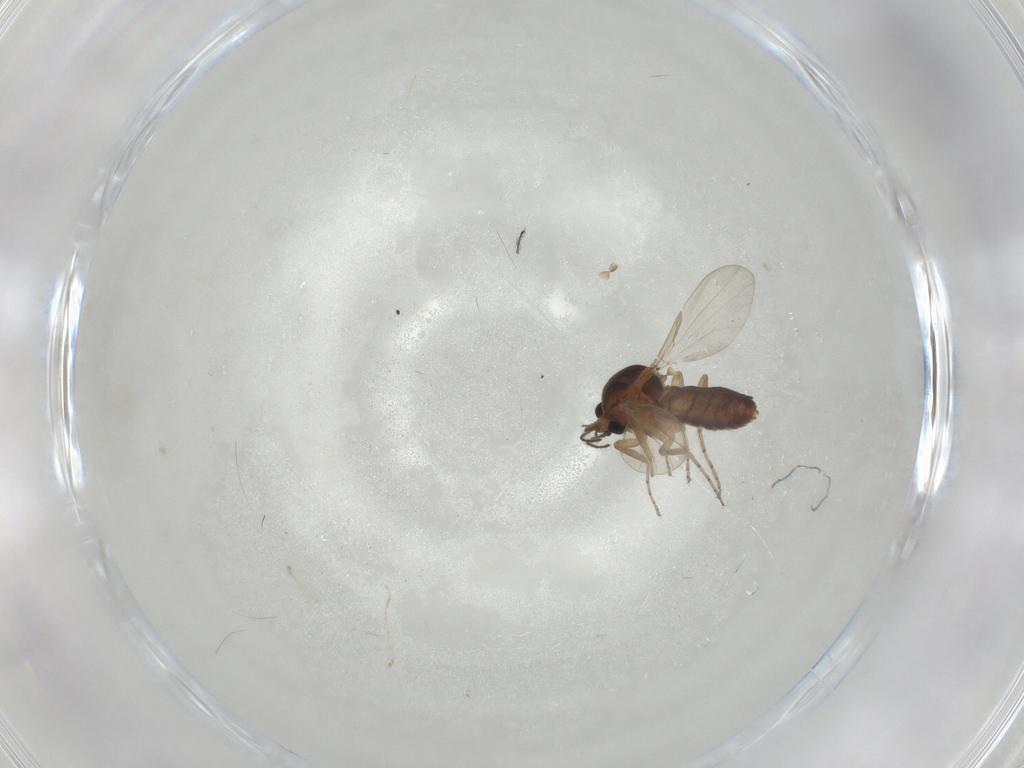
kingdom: Animalia
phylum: Arthropoda
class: Insecta
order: Diptera
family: Ceratopogonidae
